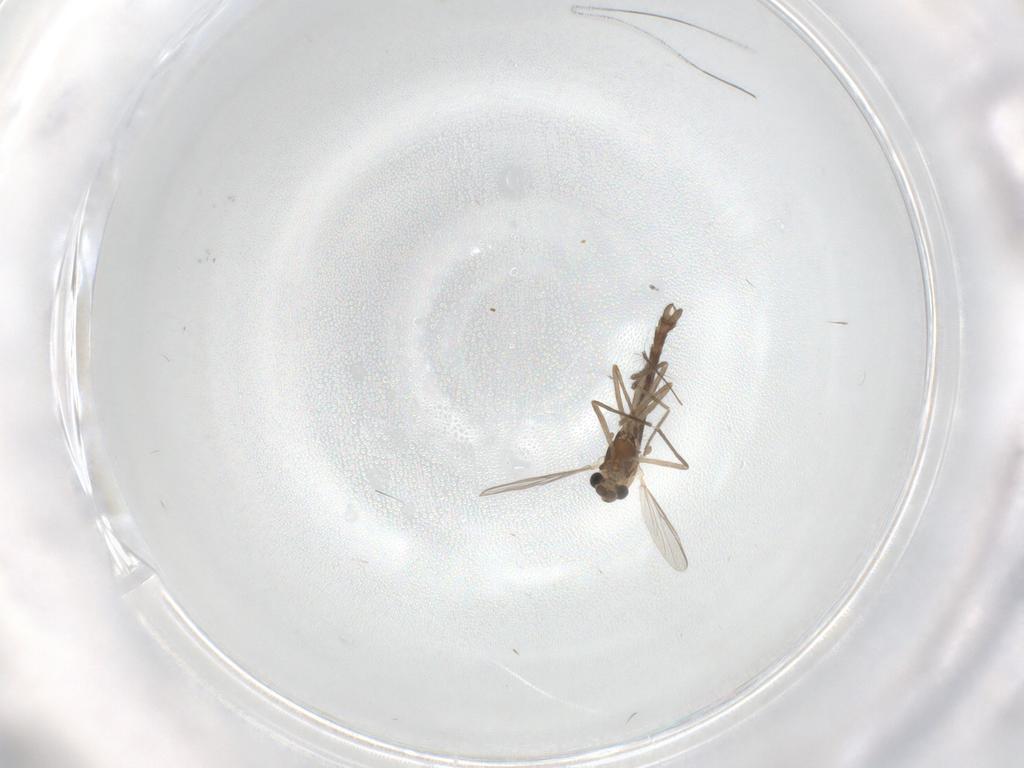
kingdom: Animalia
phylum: Arthropoda
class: Insecta
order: Diptera
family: Chironomidae
